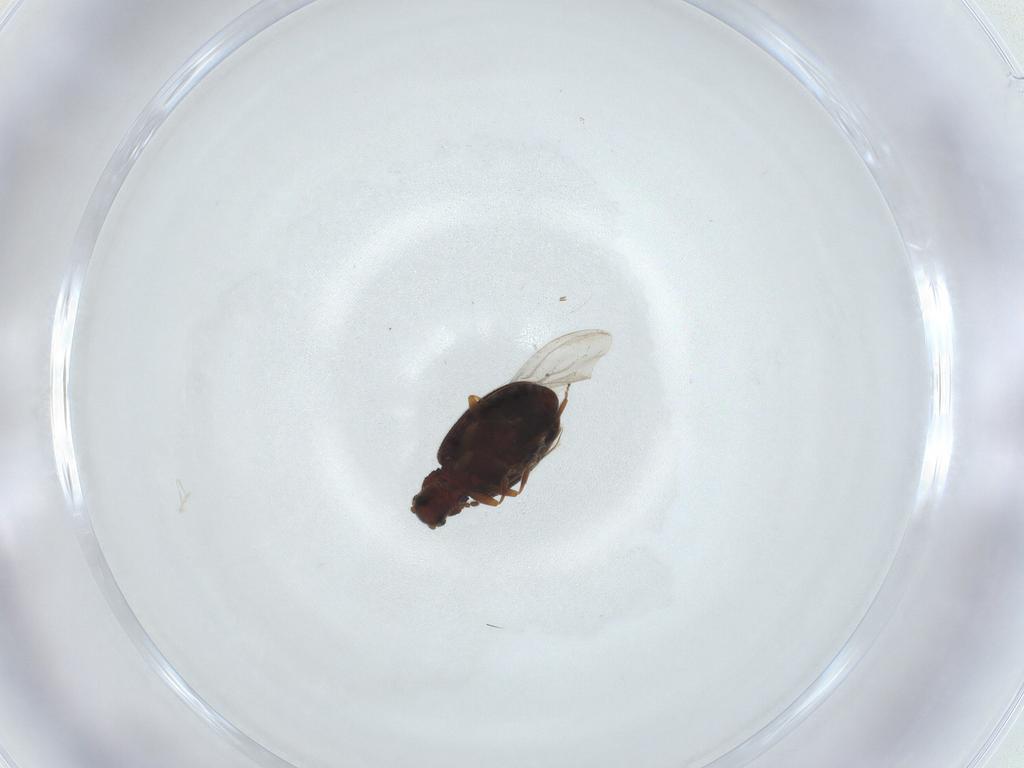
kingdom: Animalia
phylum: Arthropoda
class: Insecta
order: Coleoptera
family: Latridiidae
